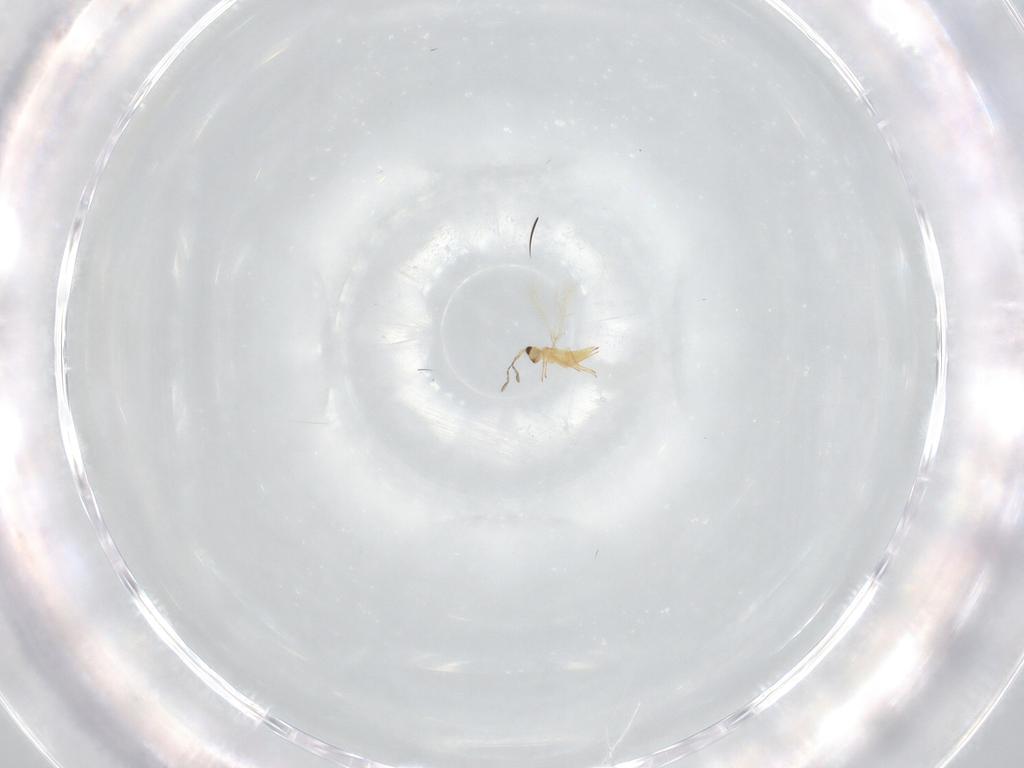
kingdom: Animalia
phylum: Arthropoda
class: Insecta
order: Hymenoptera
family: Mymaridae
